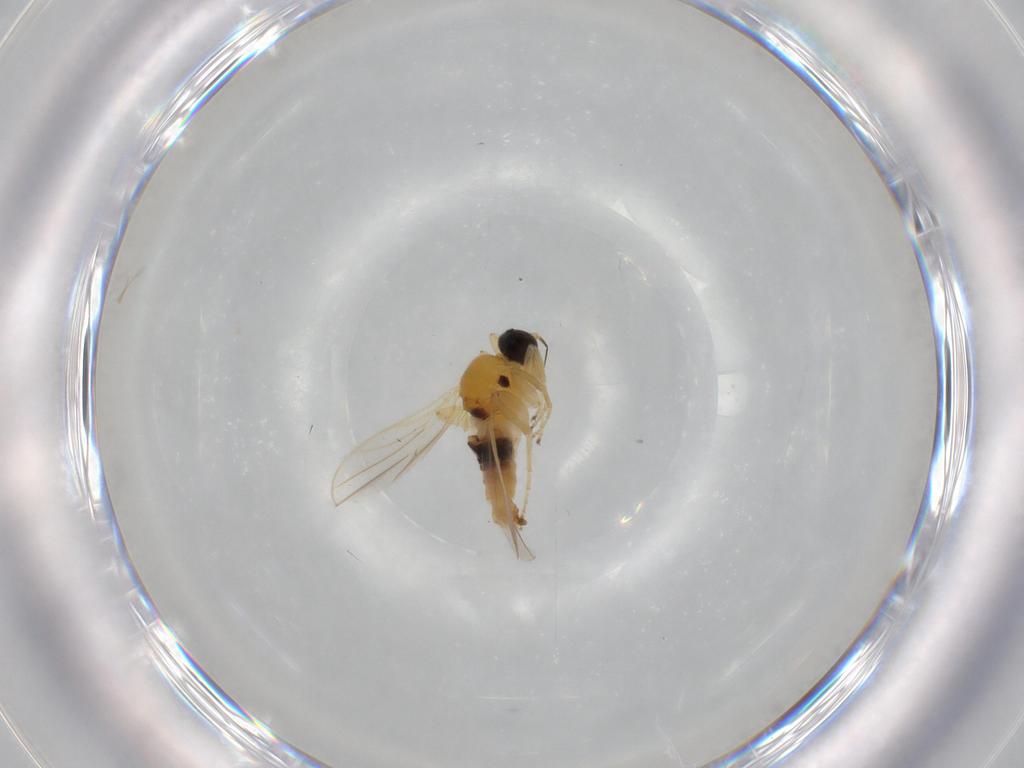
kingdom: Animalia
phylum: Arthropoda
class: Insecta
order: Diptera
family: Chironomidae
